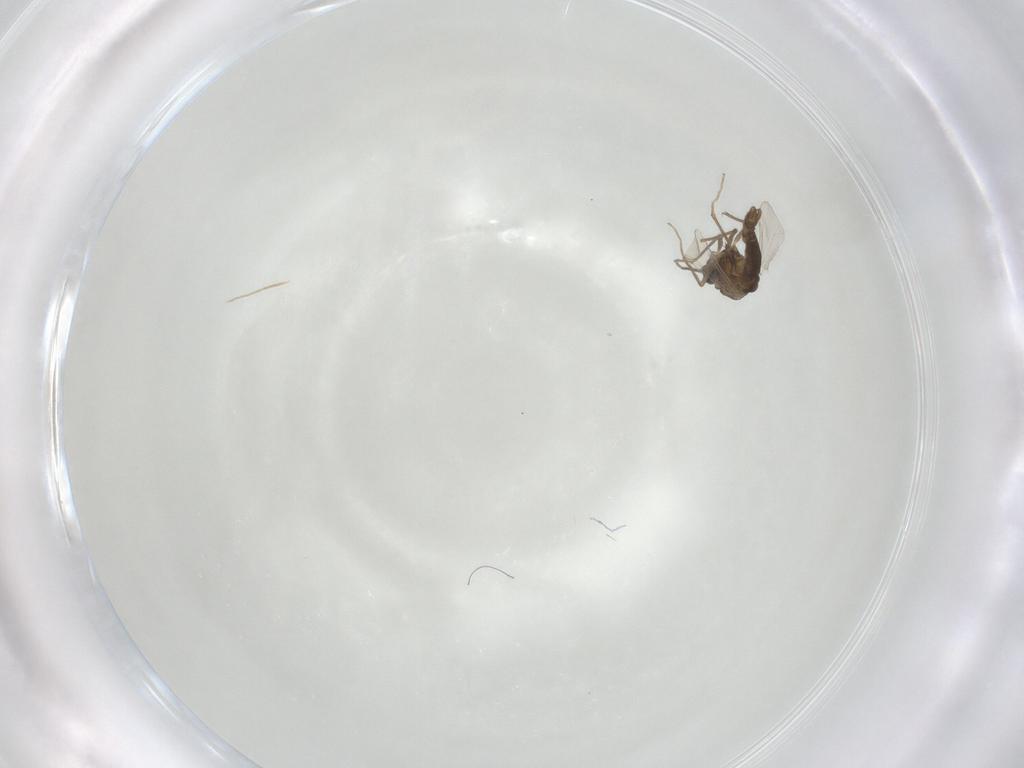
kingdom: Animalia
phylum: Arthropoda
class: Insecta
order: Diptera
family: Chironomidae
